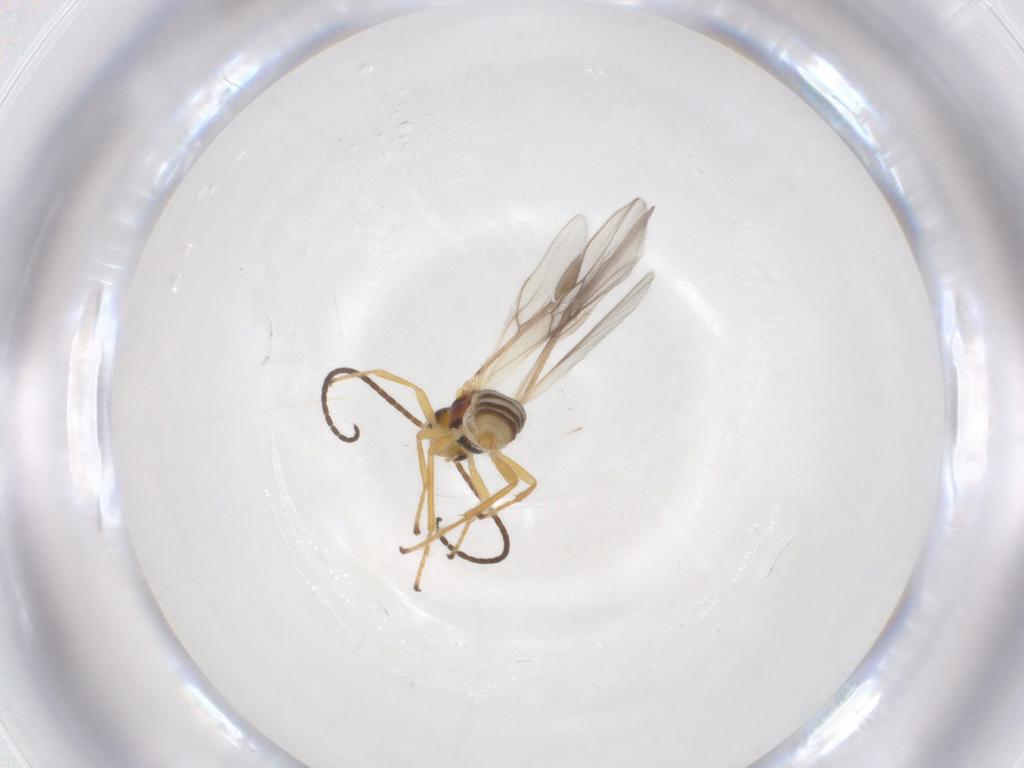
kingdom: Animalia
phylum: Arthropoda
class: Insecta
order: Hymenoptera
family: Braconidae
